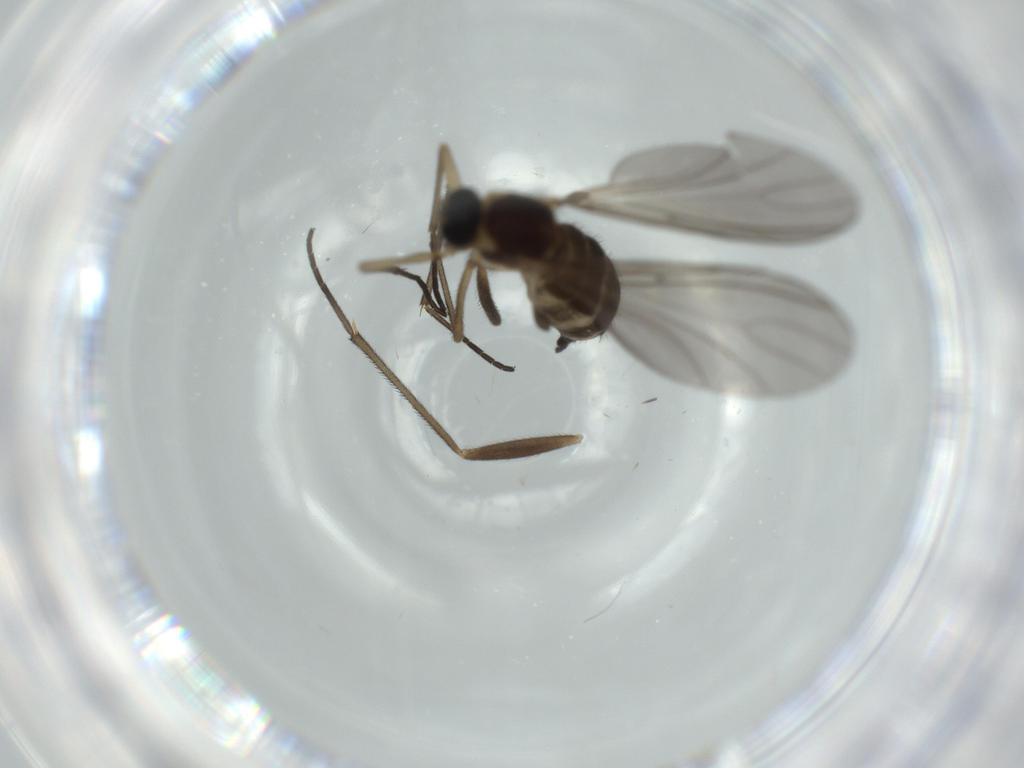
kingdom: Animalia
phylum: Arthropoda
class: Insecta
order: Diptera
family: Sciaridae
